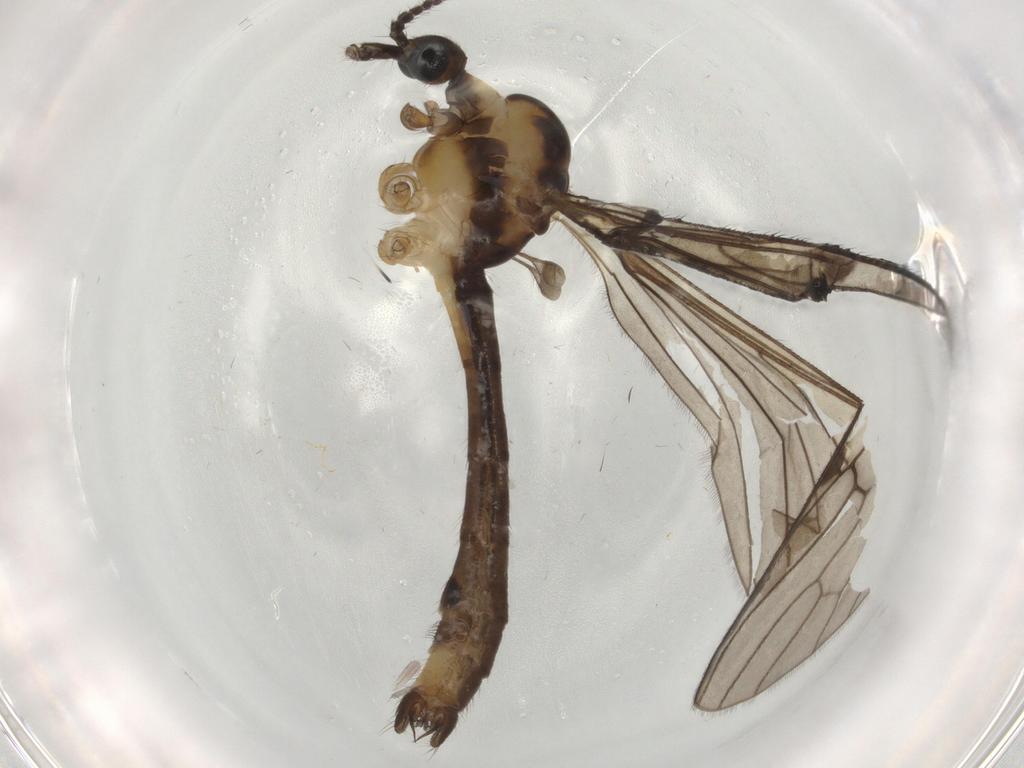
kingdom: Animalia
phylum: Arthropoda
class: Insecta
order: Diptera
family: Limoniidae
